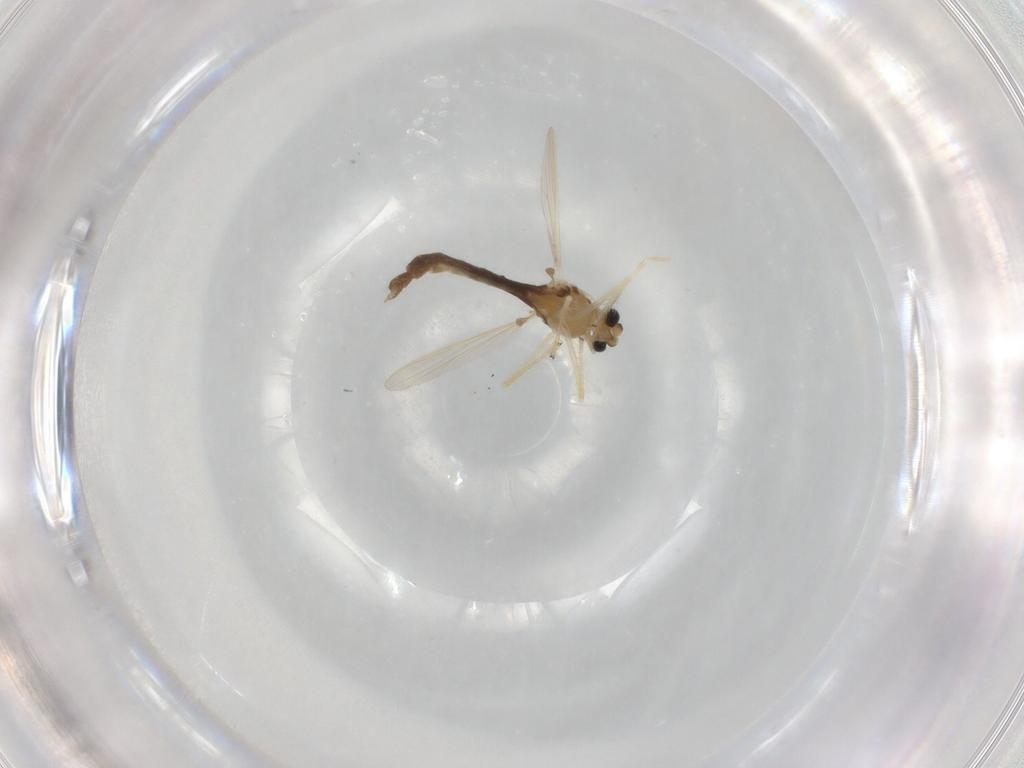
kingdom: Animalia
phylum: Arthropoda
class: Insecta
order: Diptera
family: Chironomidae
